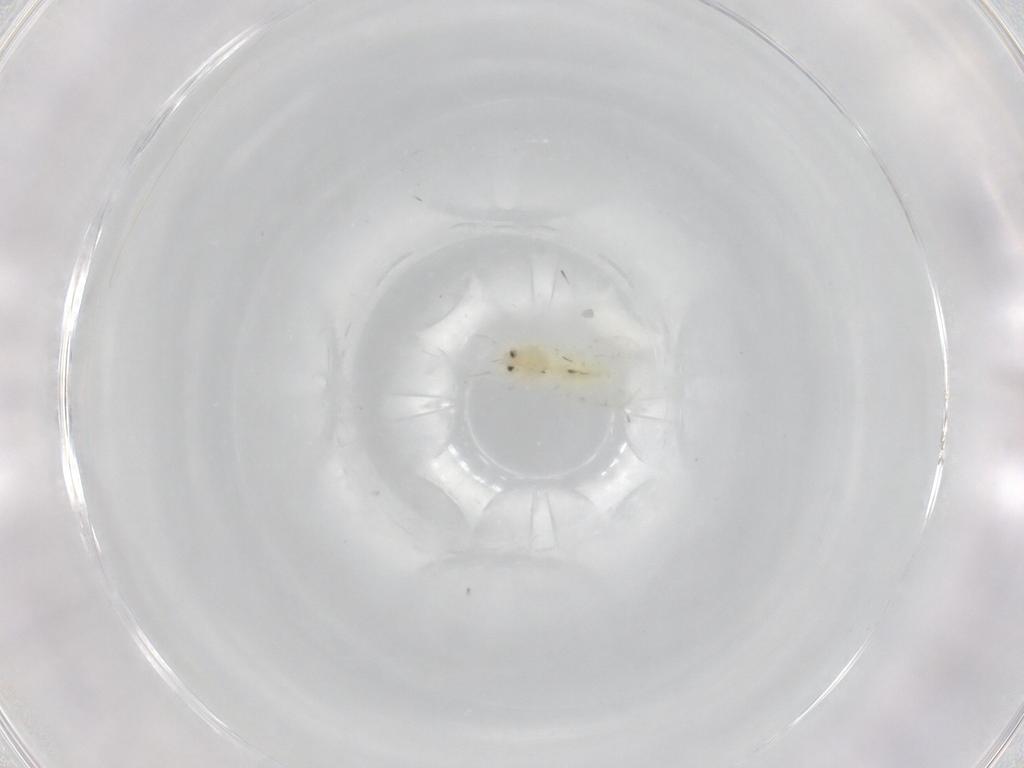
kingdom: Animalia
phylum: Arthropoda
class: Insecta
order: Hemiptera
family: Aleyrodidae
